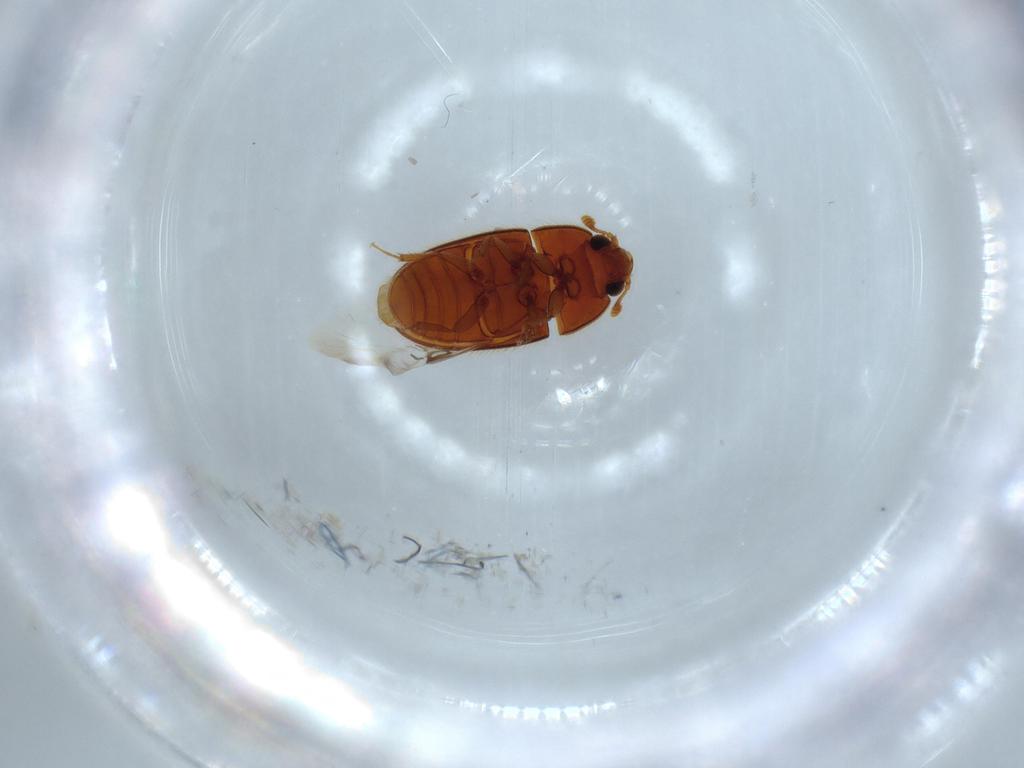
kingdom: Animalia
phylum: Arthropoda
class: Insecta
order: Coleoptera
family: Biphyllidae
